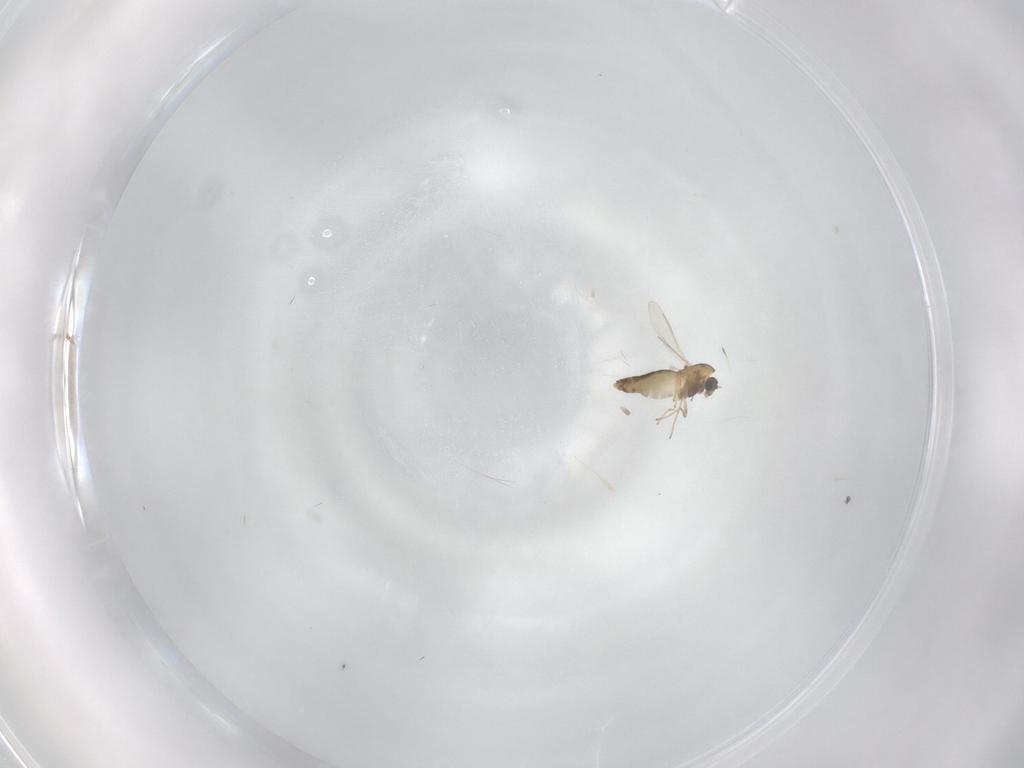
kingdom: Animalia
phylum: Arthropoda
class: Insecta
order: Diptera
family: Chironomidae
